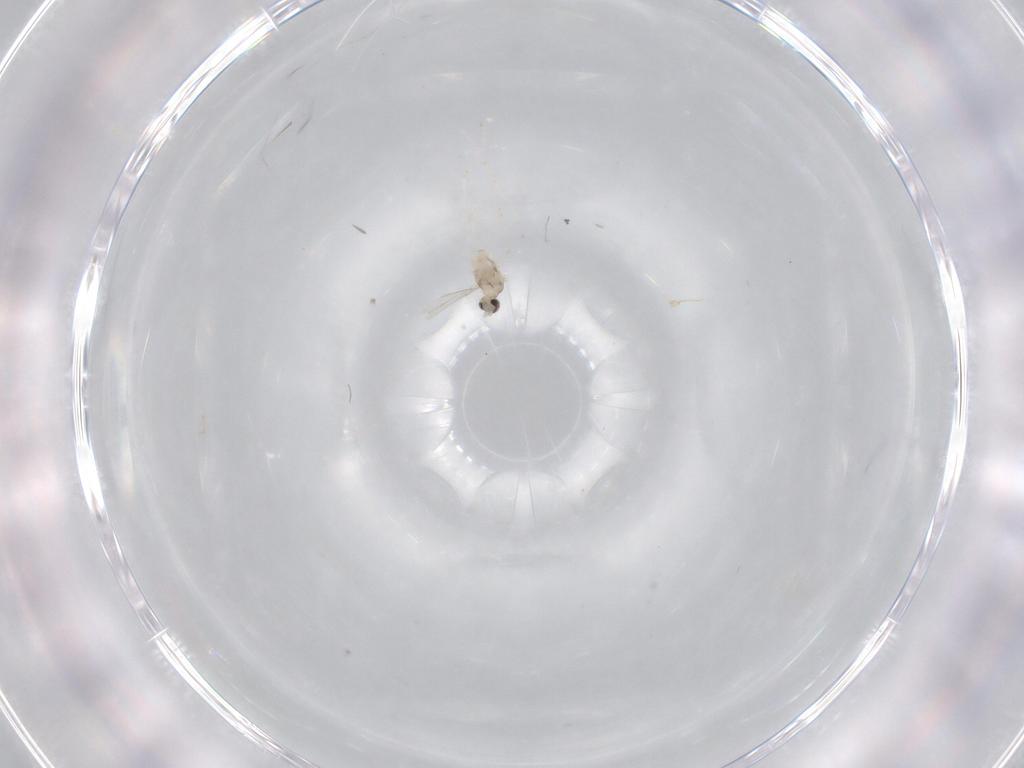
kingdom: Animalia
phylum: Arthropoda
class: Insecta
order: Diptera
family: Cecidomyiidae
